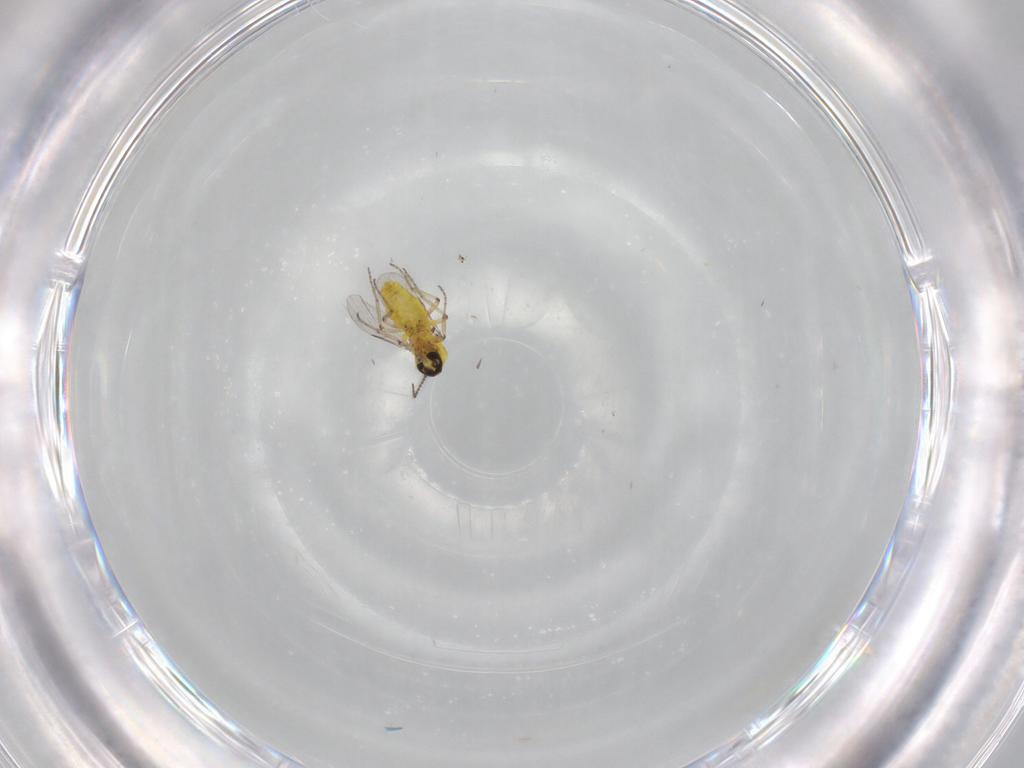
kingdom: Animalia
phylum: Arthropoda
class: Insecta
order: Diptera
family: Ceratopogonidae
